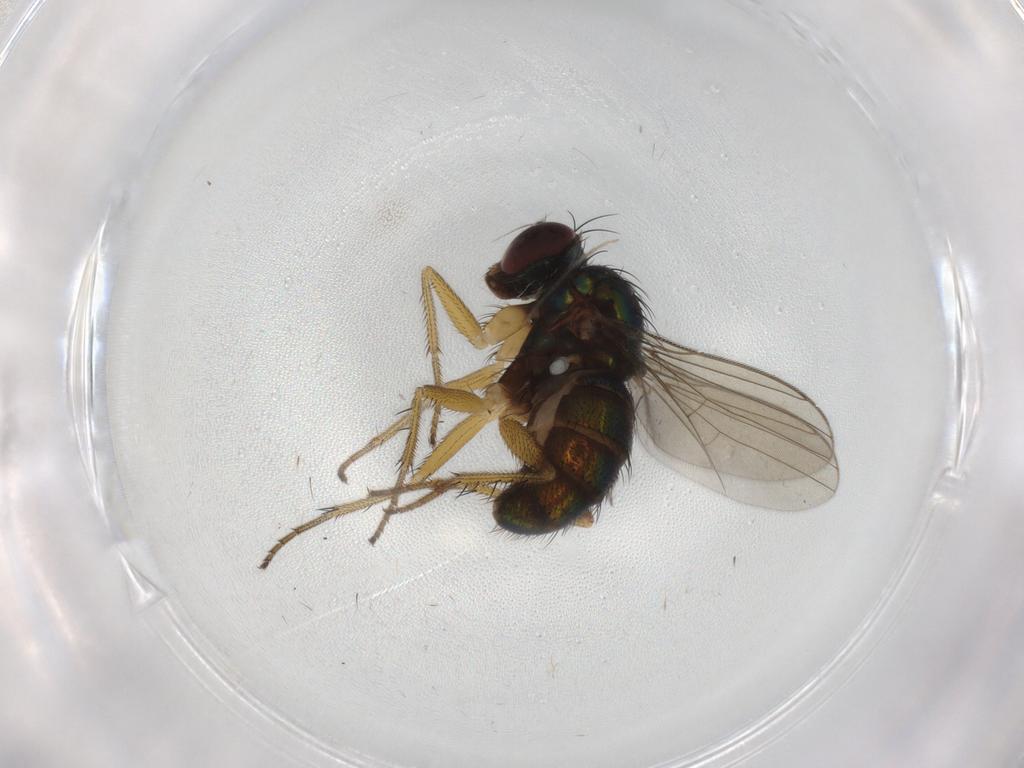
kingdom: Animalia
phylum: Arthropoda
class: Insecta
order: Diptera
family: Dolichopodidae
